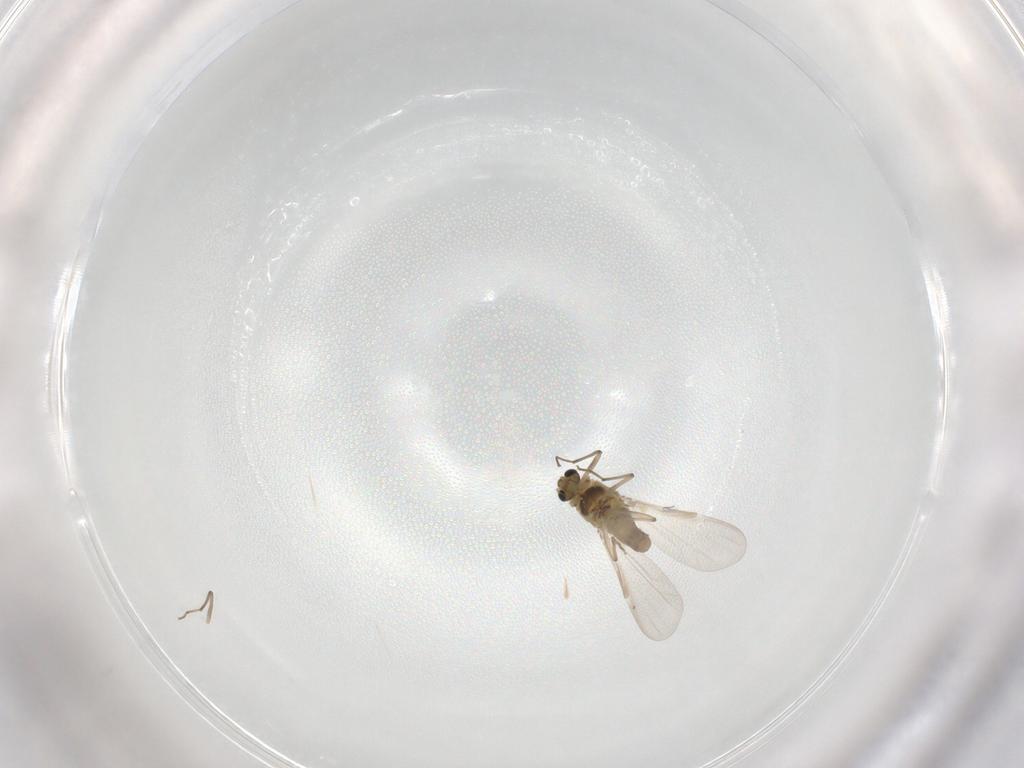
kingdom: Animalia
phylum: Arthropoda
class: Insecta
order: Diptera
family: Chironomidae
